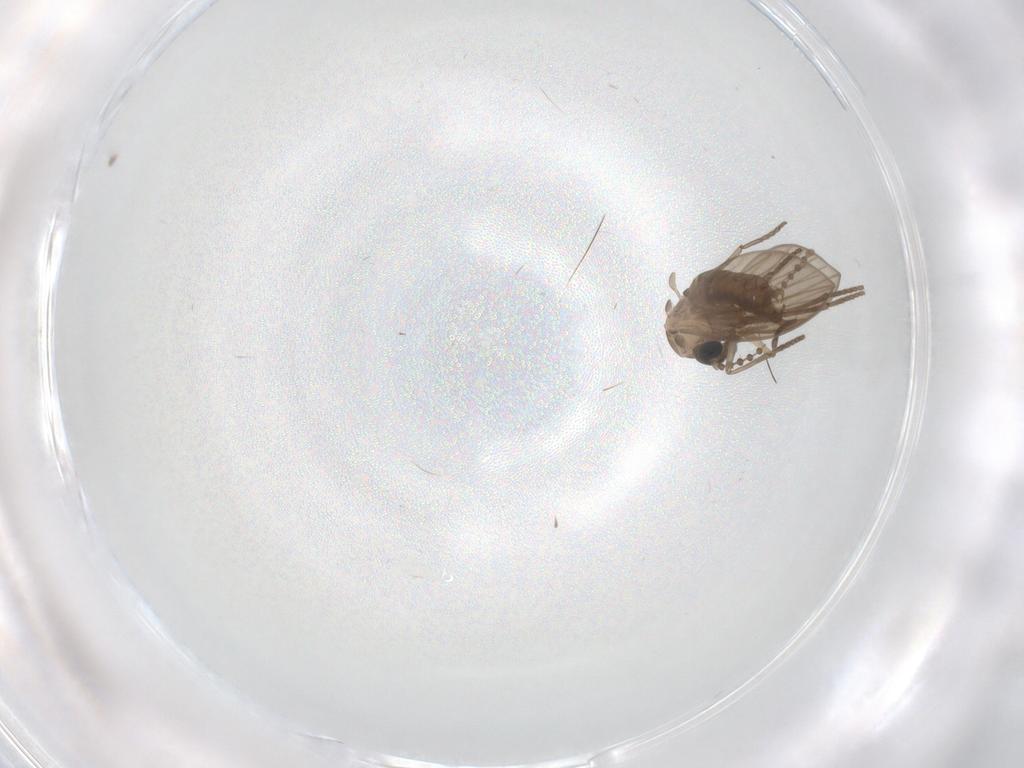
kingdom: Animalia
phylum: Arthropoda
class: Insecta
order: Diptera
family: Psychodidae
